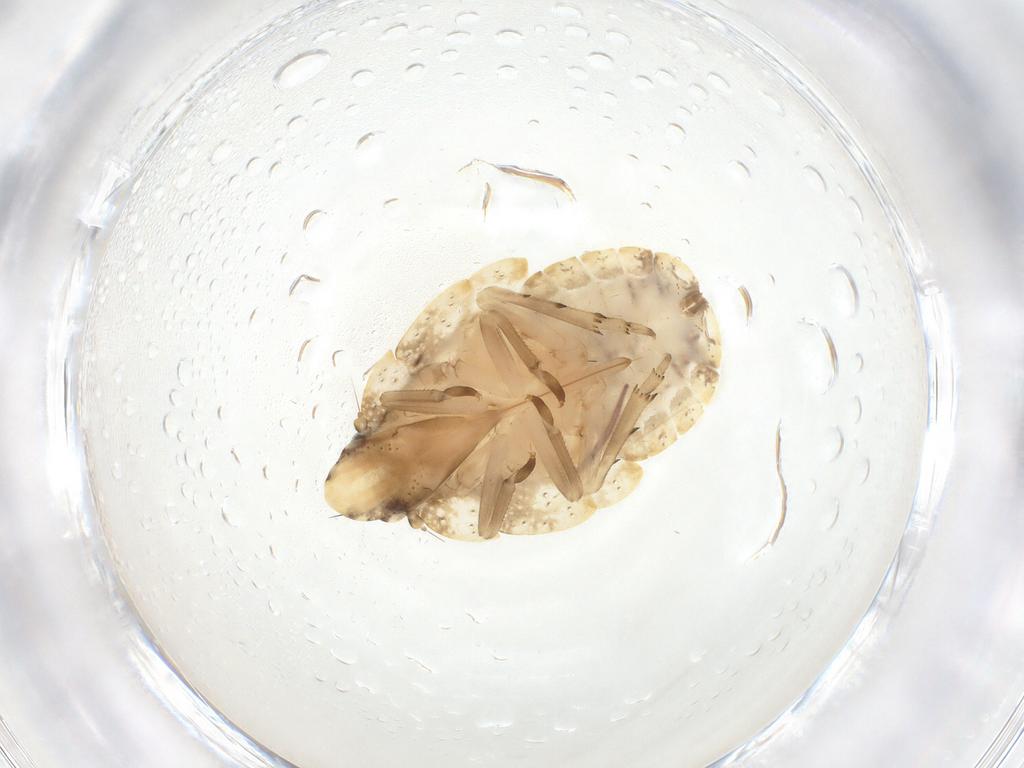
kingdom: Animalia
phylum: Arthropoda
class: Insecta
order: Hemiptera
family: Flatidae
